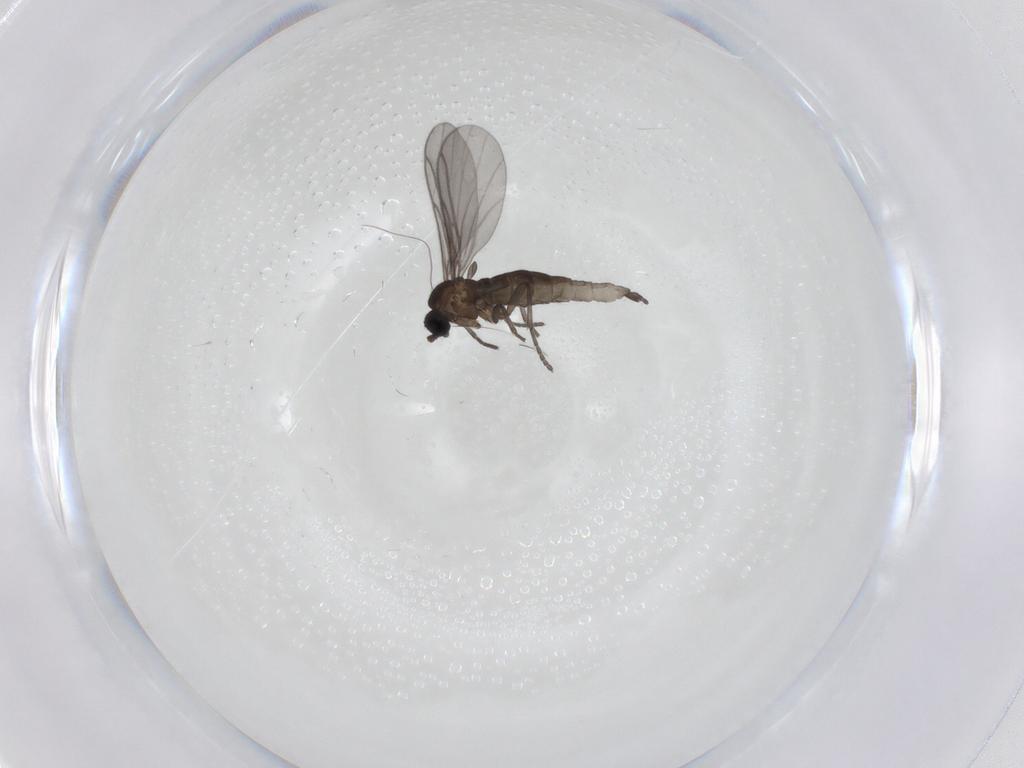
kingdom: Animalia
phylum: Arthropoda
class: Insecta
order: Diptera
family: Sciaridae
